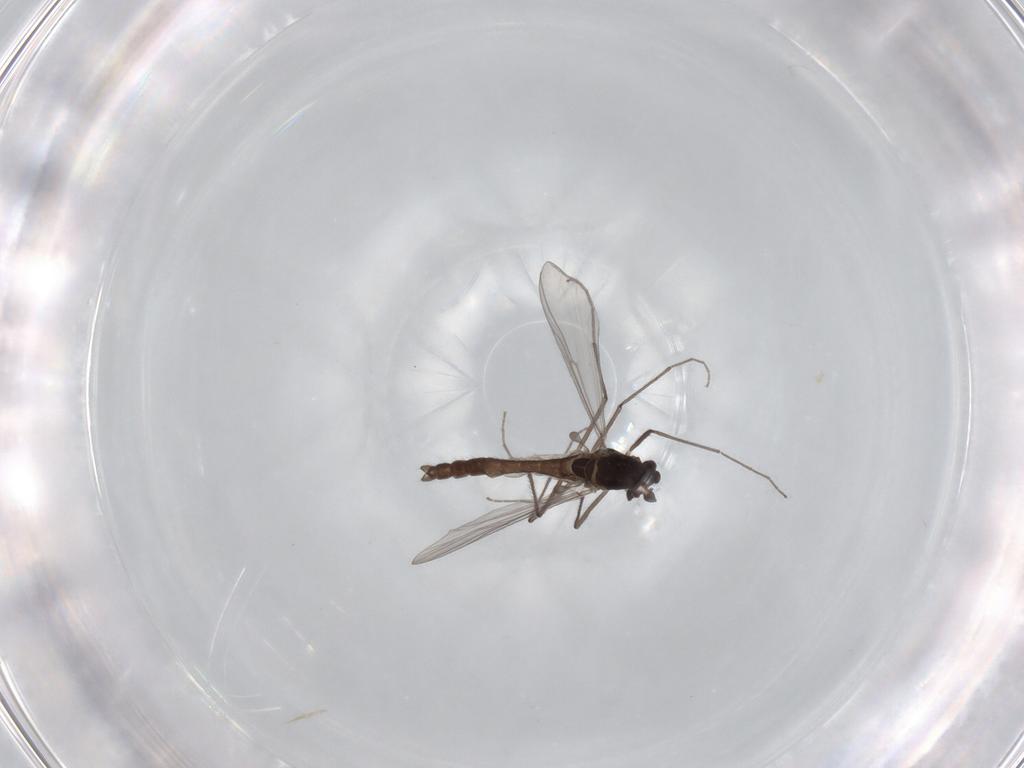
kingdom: Animalia
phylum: Arthropoda
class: Insecta
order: Diptera
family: Chironomidae
